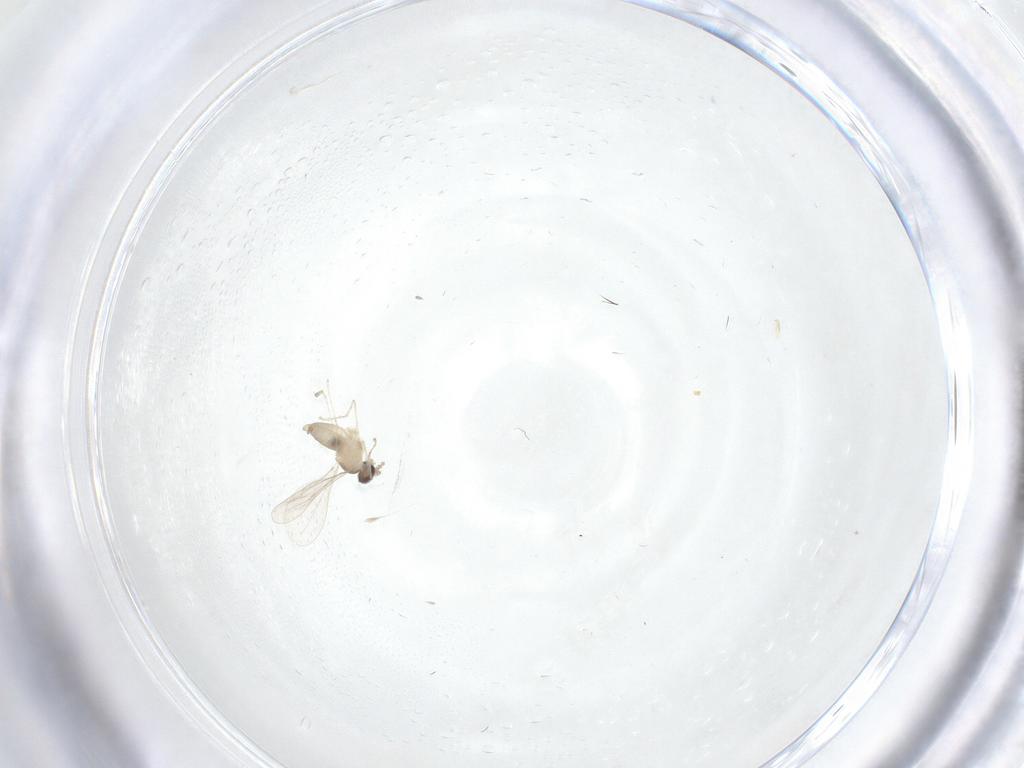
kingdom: Animalia
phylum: Arthropoda
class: Insecta
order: Diptera
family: Cecidomyiidae
